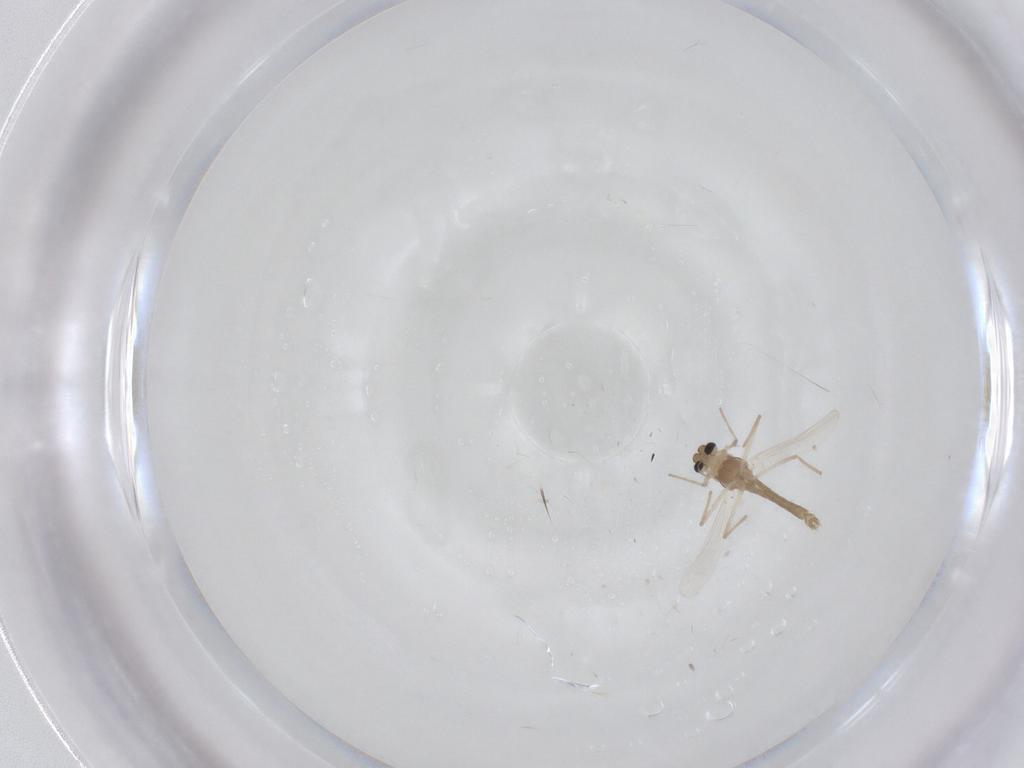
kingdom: Animalia
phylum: Arthropoda
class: Insecta
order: Diptera
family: Chironomidae
